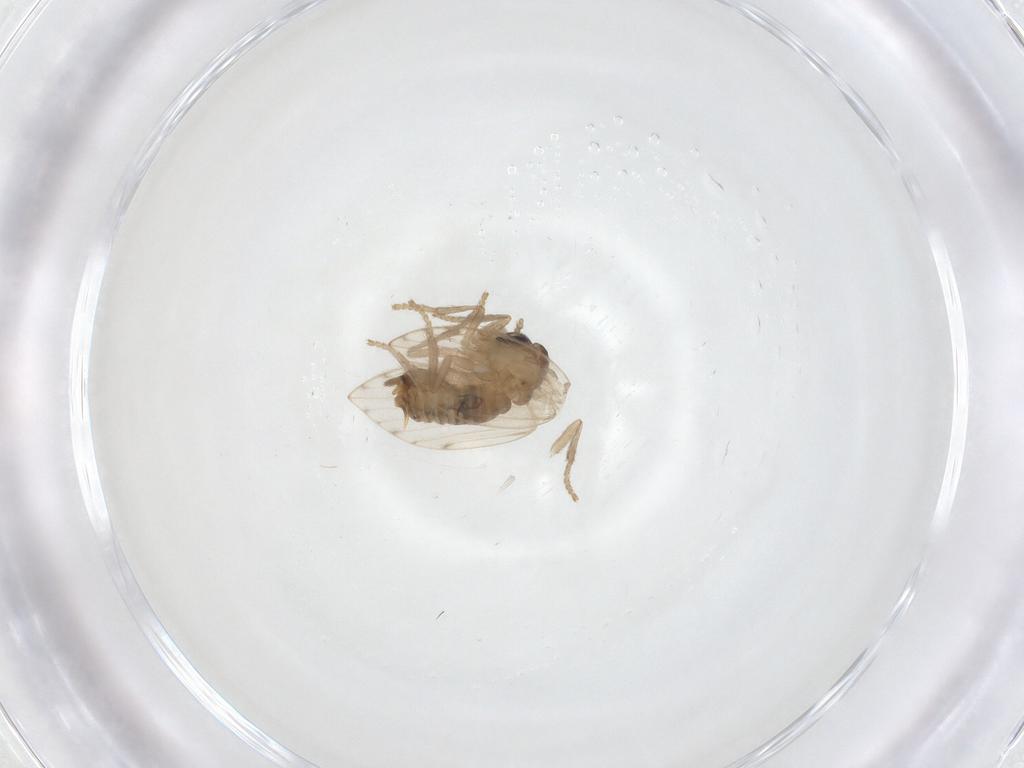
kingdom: Animalia
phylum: Arthropoda
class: Insecta
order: Diptera
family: Psychodidae
